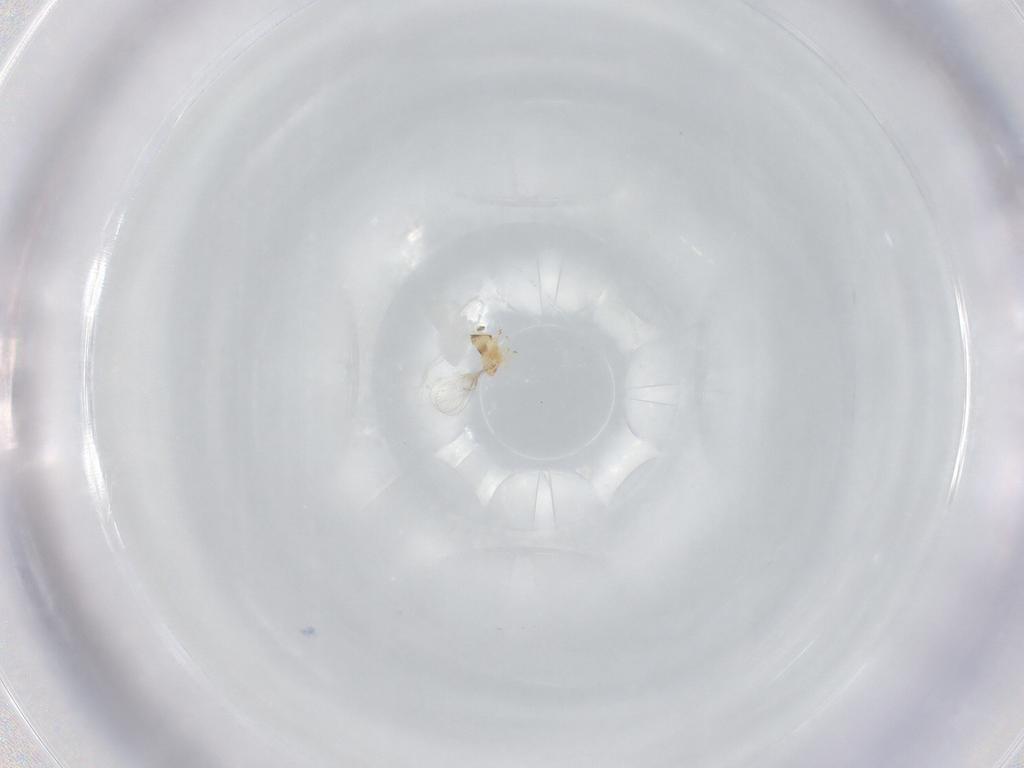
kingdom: Animalia
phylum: Arthropoda
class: Insecta
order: Hymenoptera
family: Trichogrammatidae
